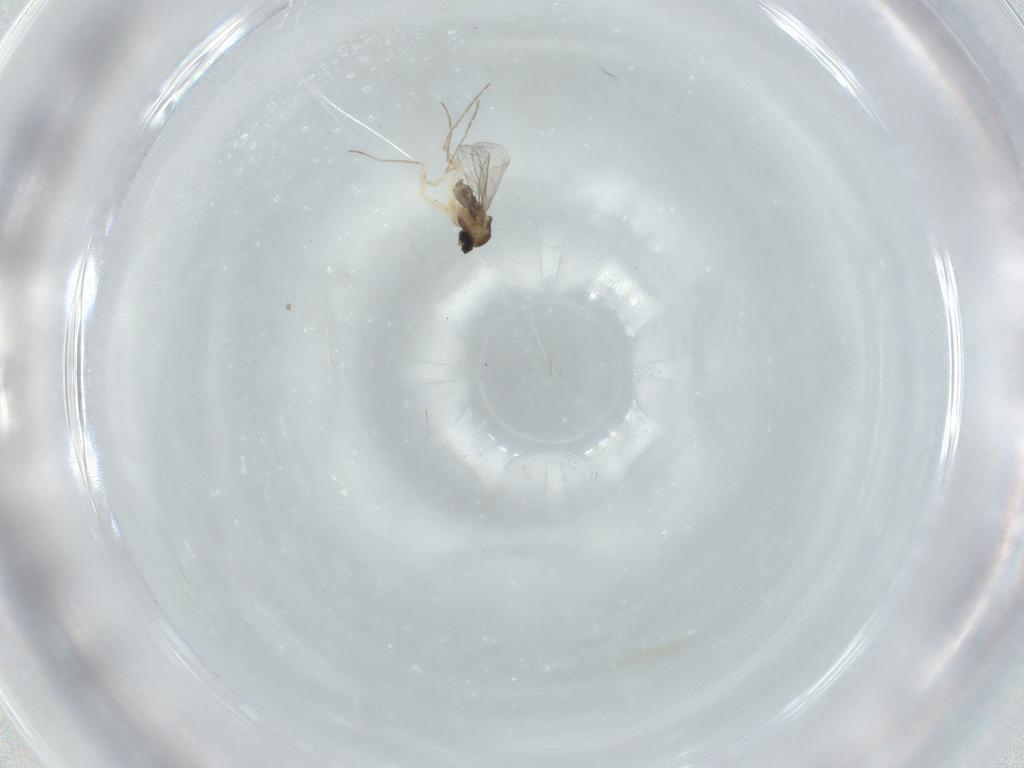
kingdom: Animalia
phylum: Arthropoda
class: Insecta
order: Diptera
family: Cecidomyiidae
